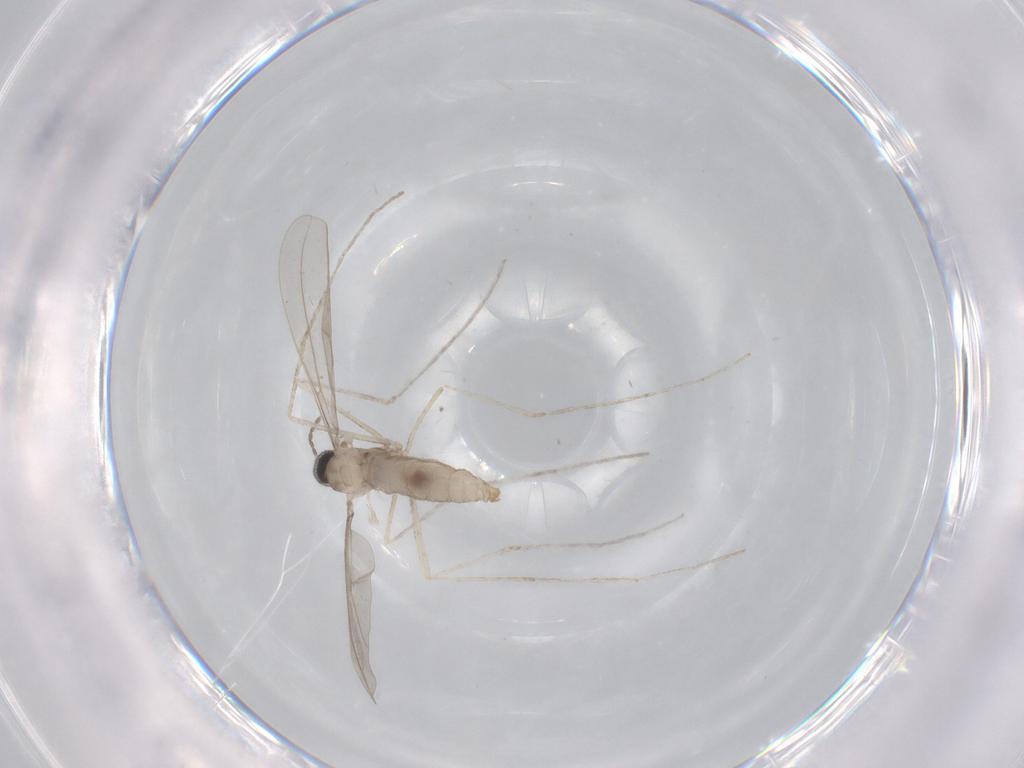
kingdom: Animalia
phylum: Arthropoda
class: Insecta
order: Diptera
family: Cecidomyiidae
